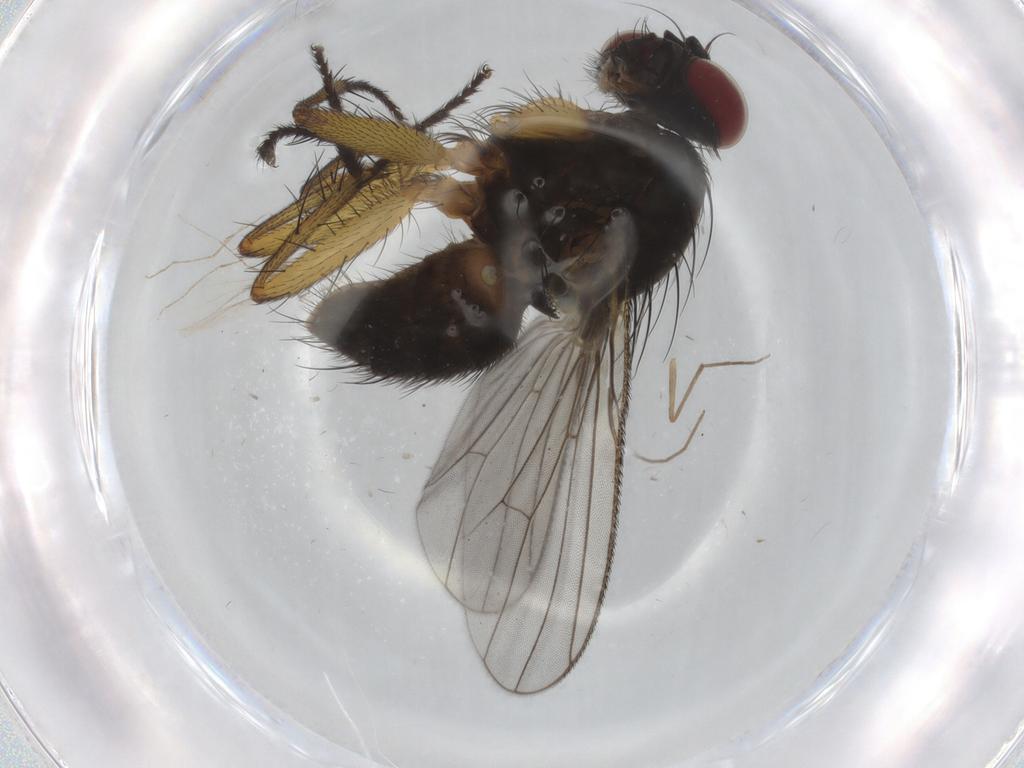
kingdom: Animalia
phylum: Arthropoda
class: Insecta
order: Diptera
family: Muscidae
